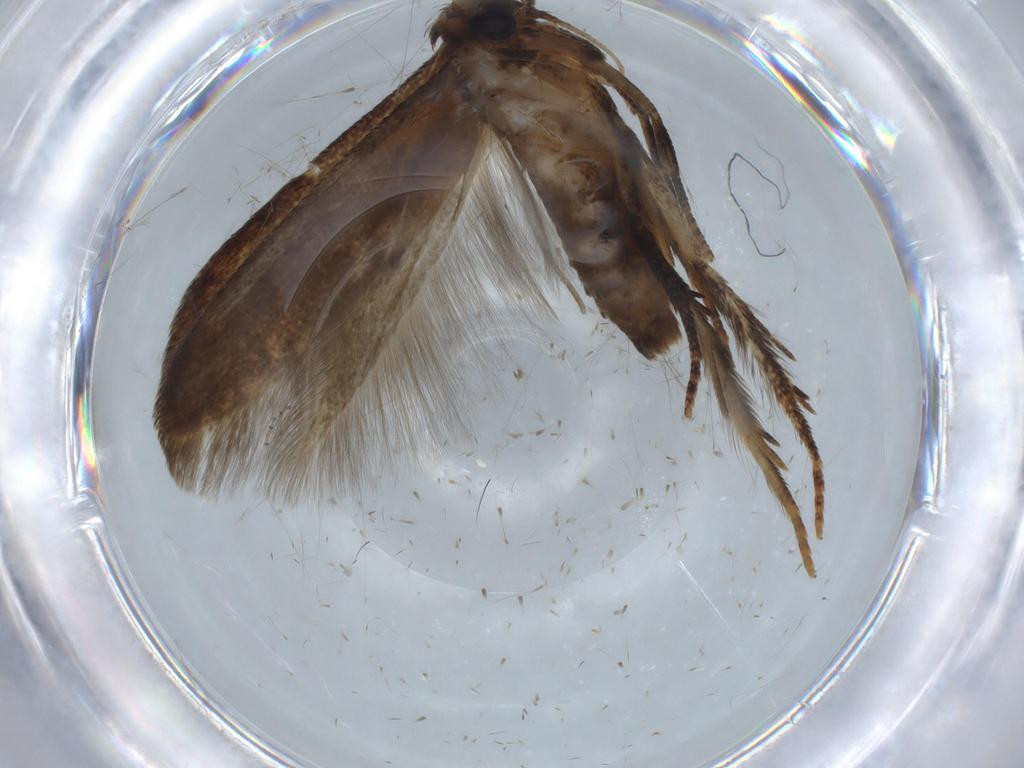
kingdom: Animalia
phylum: Arthropoda
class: Insecta
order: Lepidoptera
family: Blastobasidae
